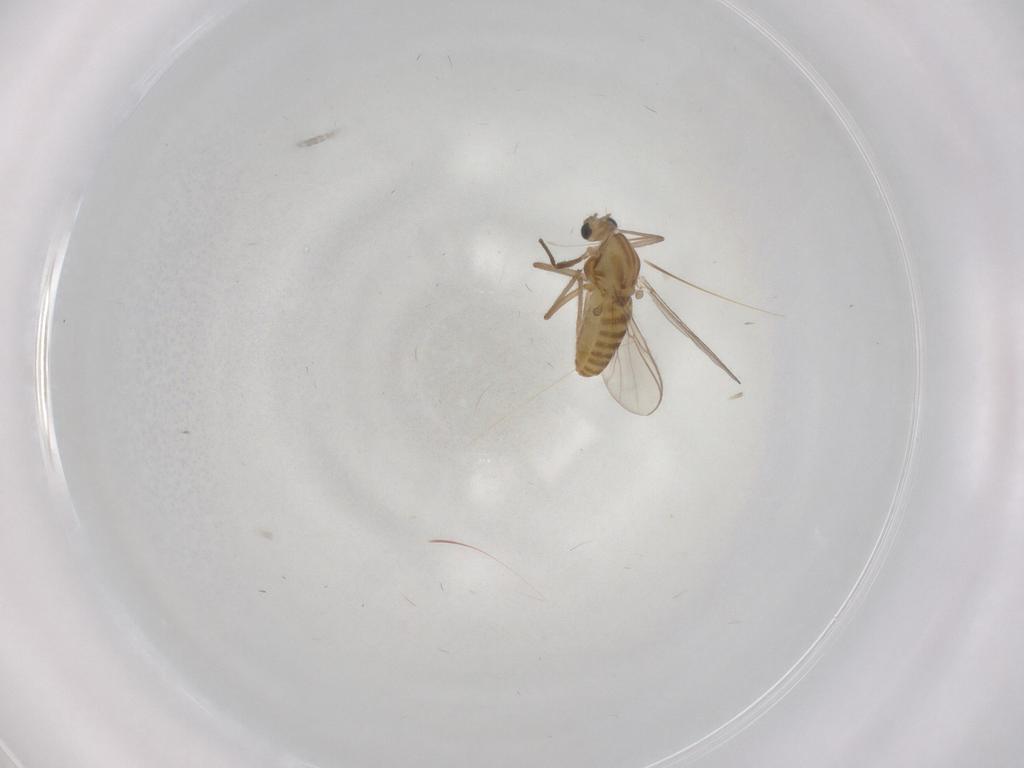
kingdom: Animalia
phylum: Arthropoda
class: Insecta
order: Diptera
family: Chironomidae
